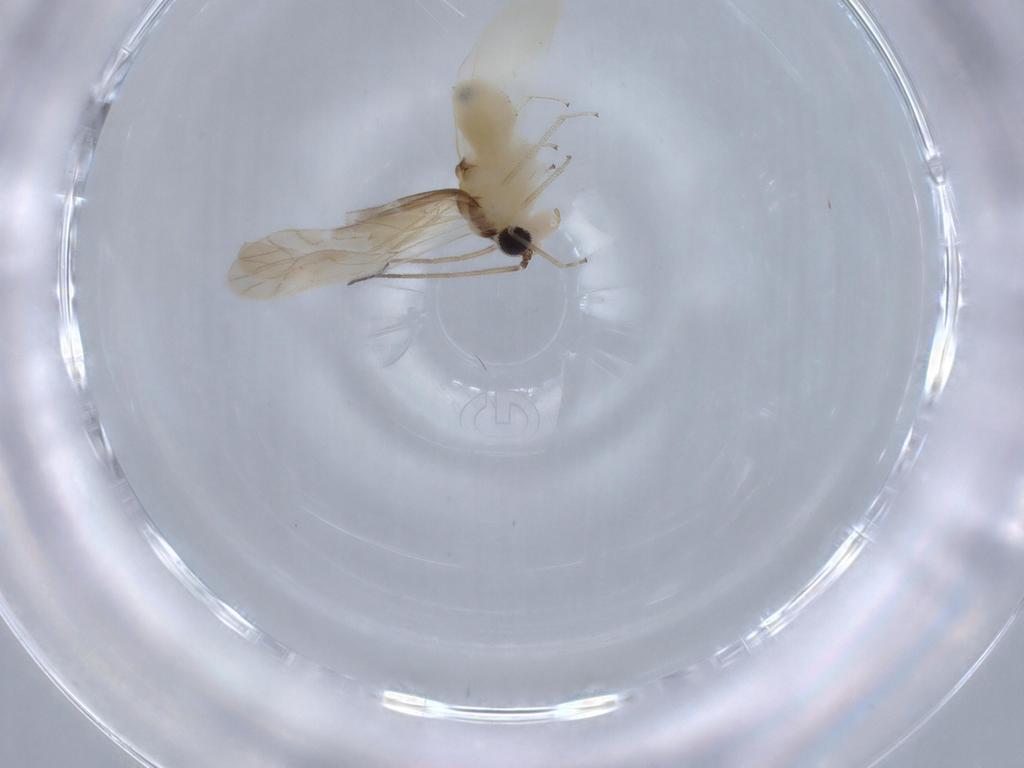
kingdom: Animalia
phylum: Arthropoda
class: Insecta
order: Psocodea
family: Caeciliusidae
